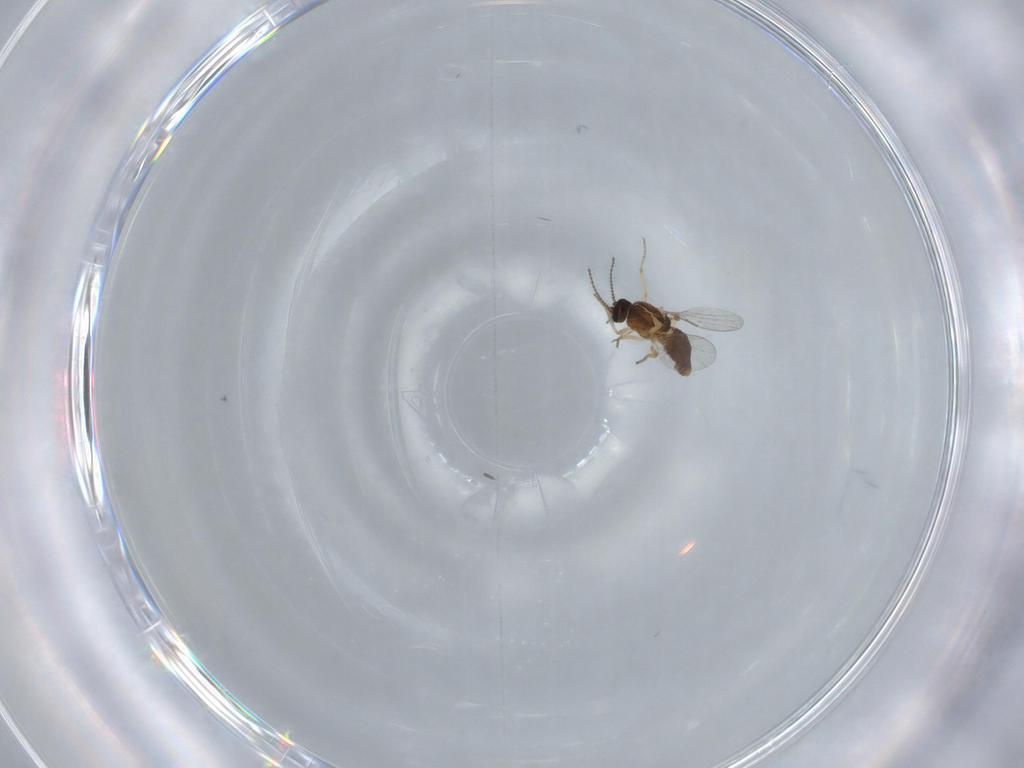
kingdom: Animalia
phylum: Arthropoda
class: Insecta
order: Diptera
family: Ceratopogonidae
